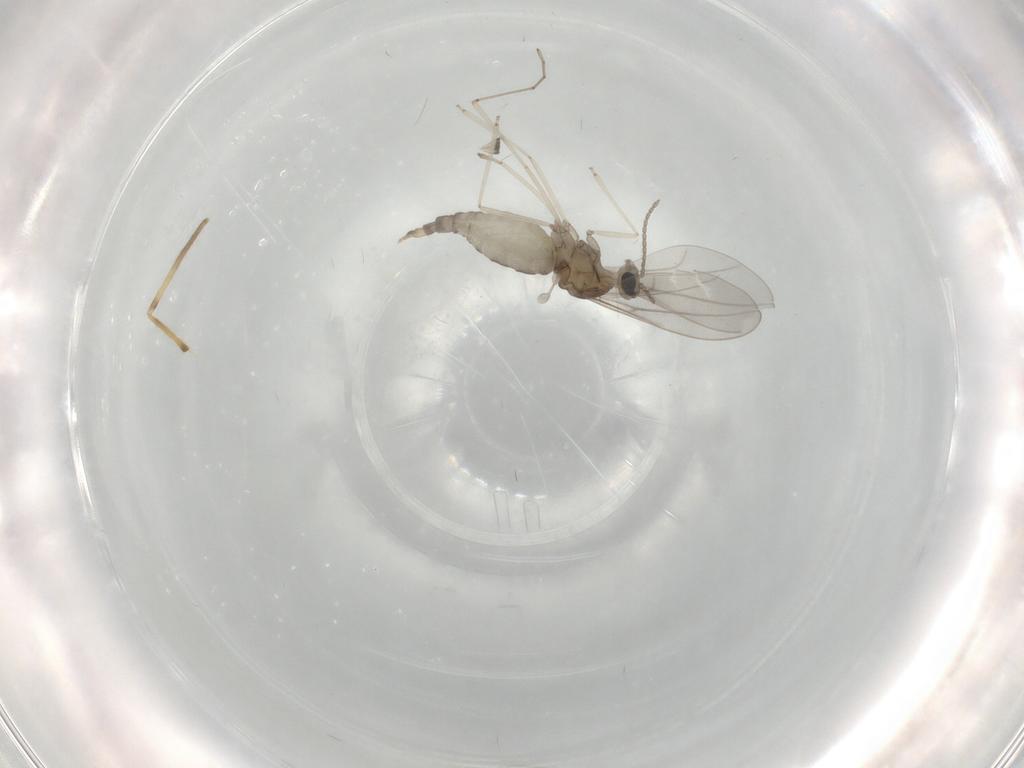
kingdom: Animalia
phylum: Arthropoda
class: Insecta
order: Diptera
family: Cecidomyiidae
